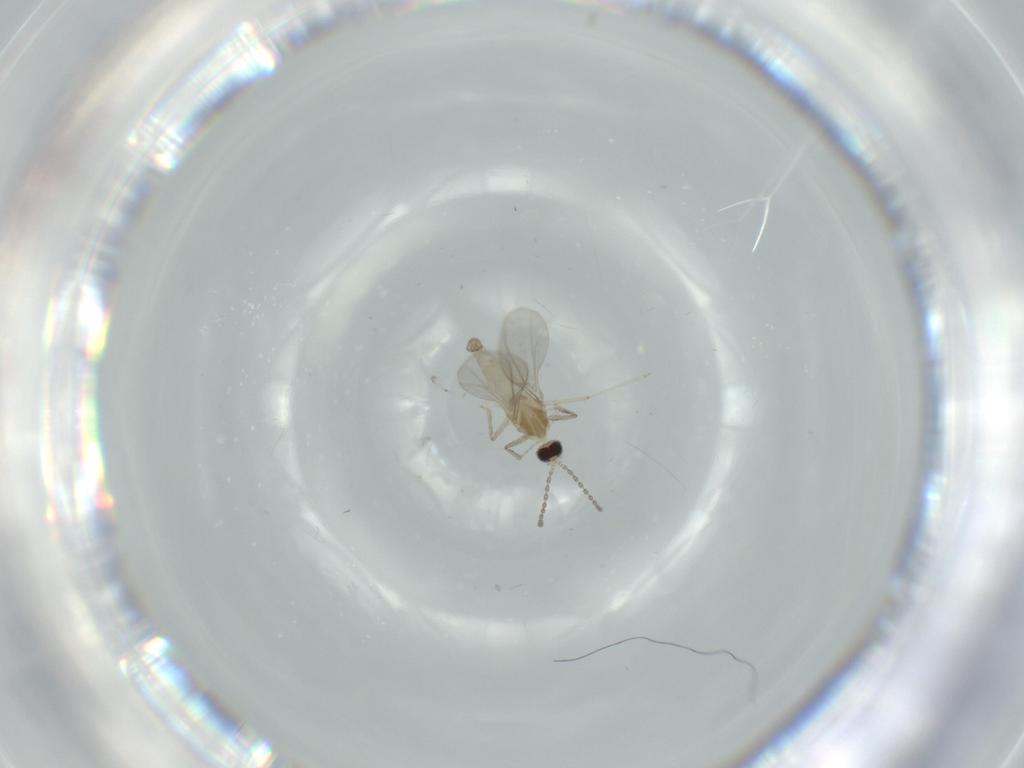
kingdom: Animalia
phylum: Arthropoda
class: Insecta
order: Diptera
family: Cecidomyiidae
